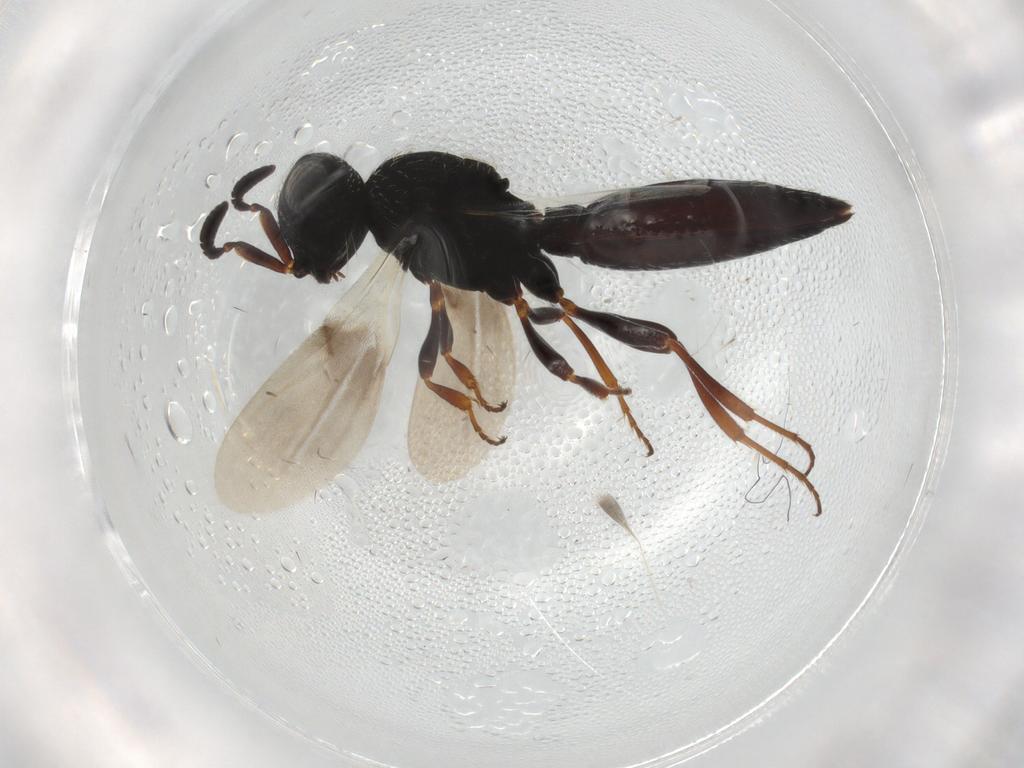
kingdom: Animalia
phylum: Arthropoda
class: Insecta
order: Hymenoptera
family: Scelionidae
